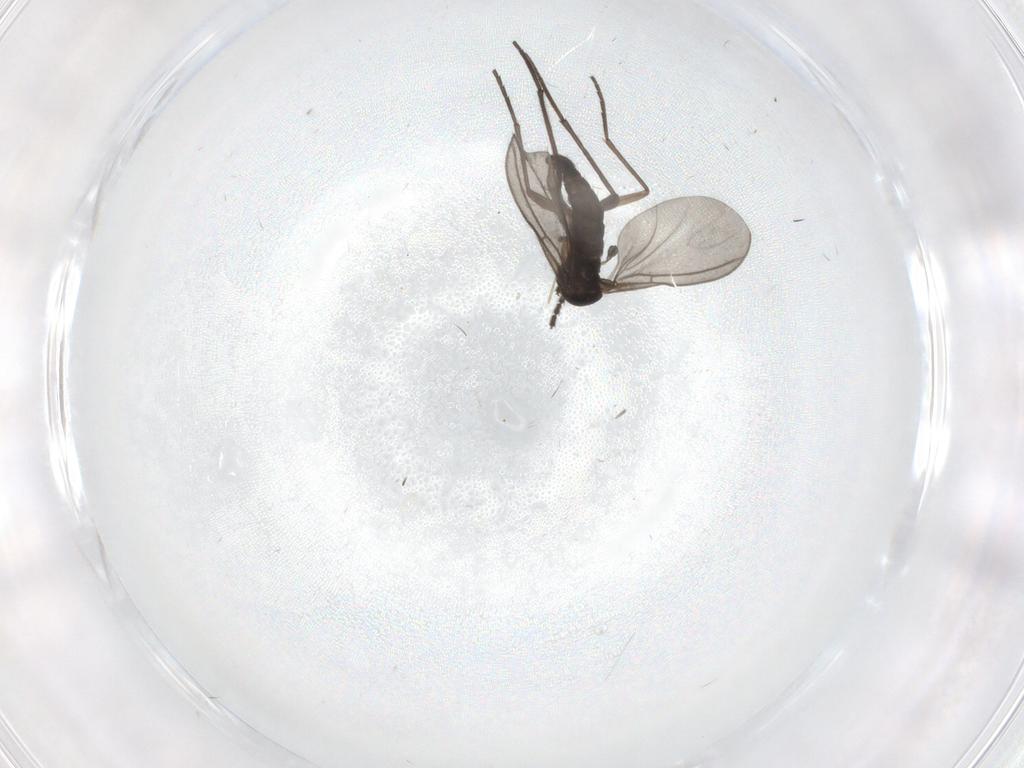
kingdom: Animalia
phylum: Arthropoda
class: Insecta
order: Diptera
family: Sciaridae
